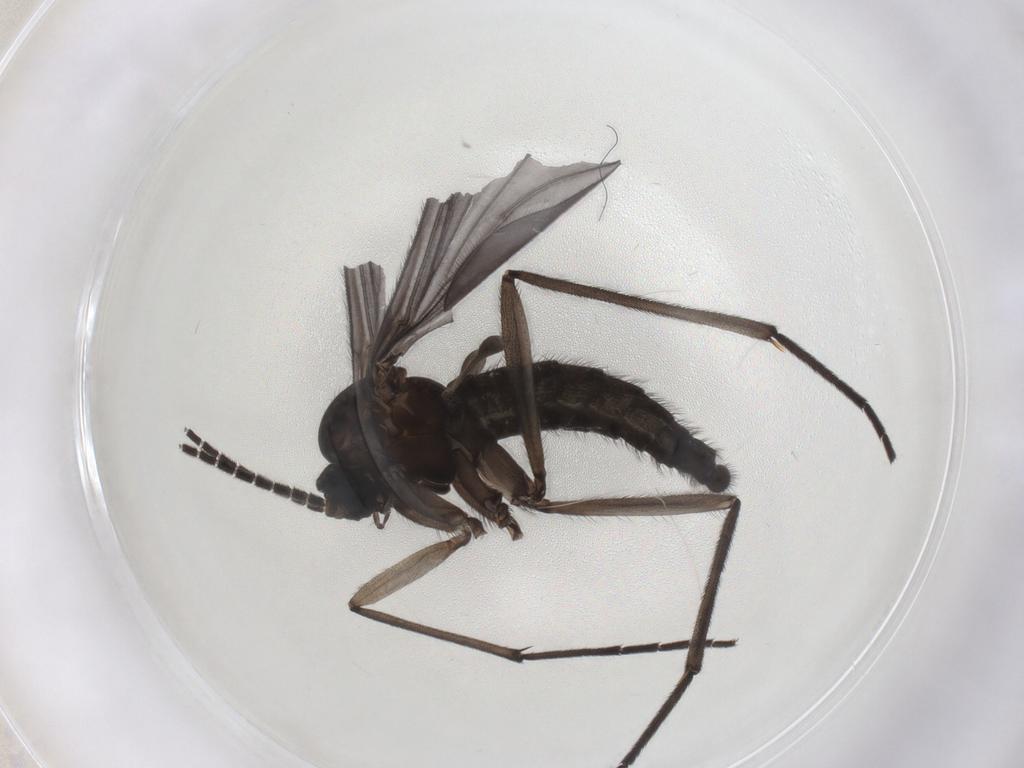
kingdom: Animalia
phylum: Arthropoda
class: Insecta
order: Diptera
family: Sciaridae
